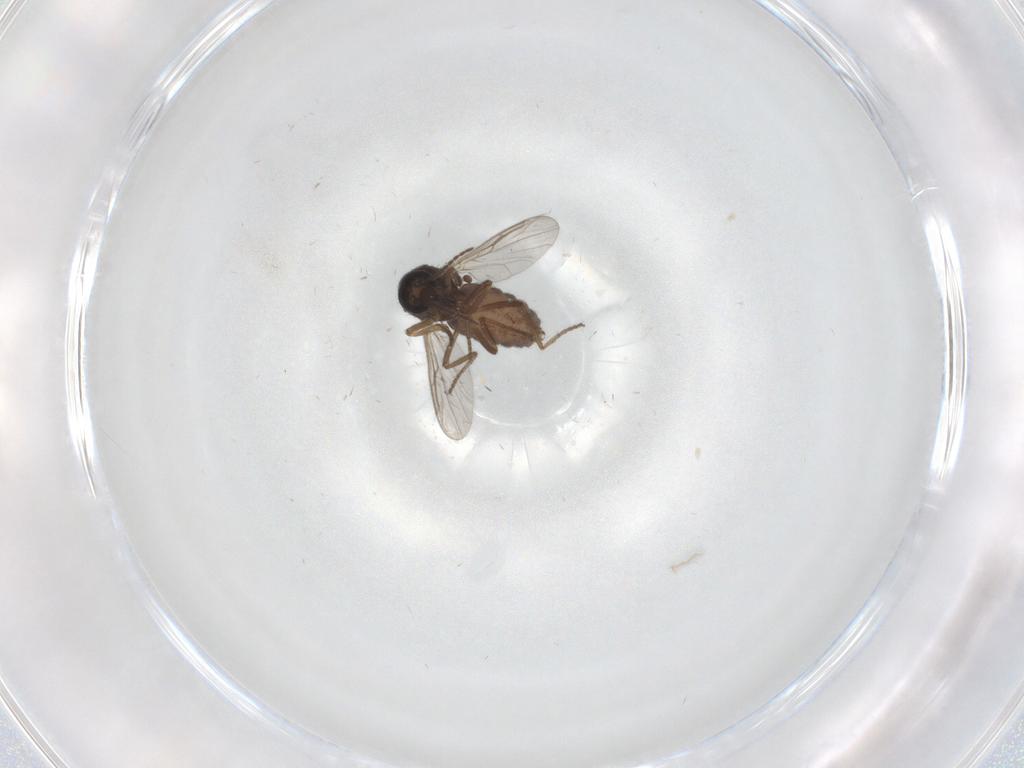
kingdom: Animalia
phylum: Arthropoda
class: Insecta
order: Diptera
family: Ceratopogonidae
